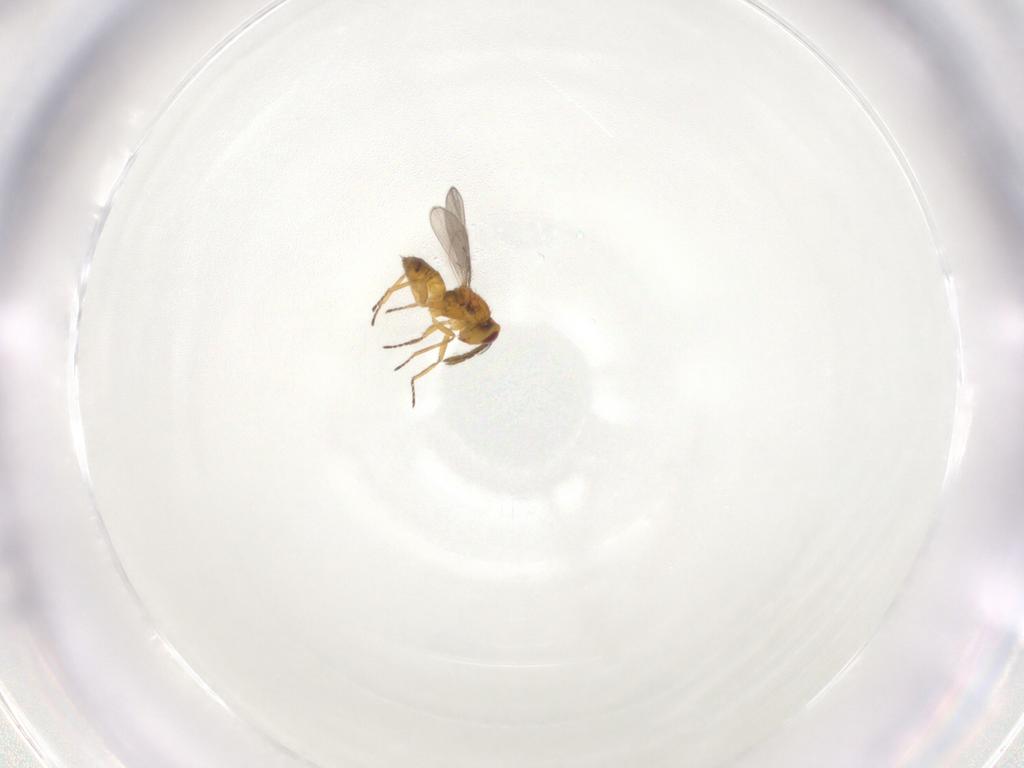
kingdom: Animalia
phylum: Arthropoda
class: Insecta
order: Hymenoptera
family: Eulophidae
